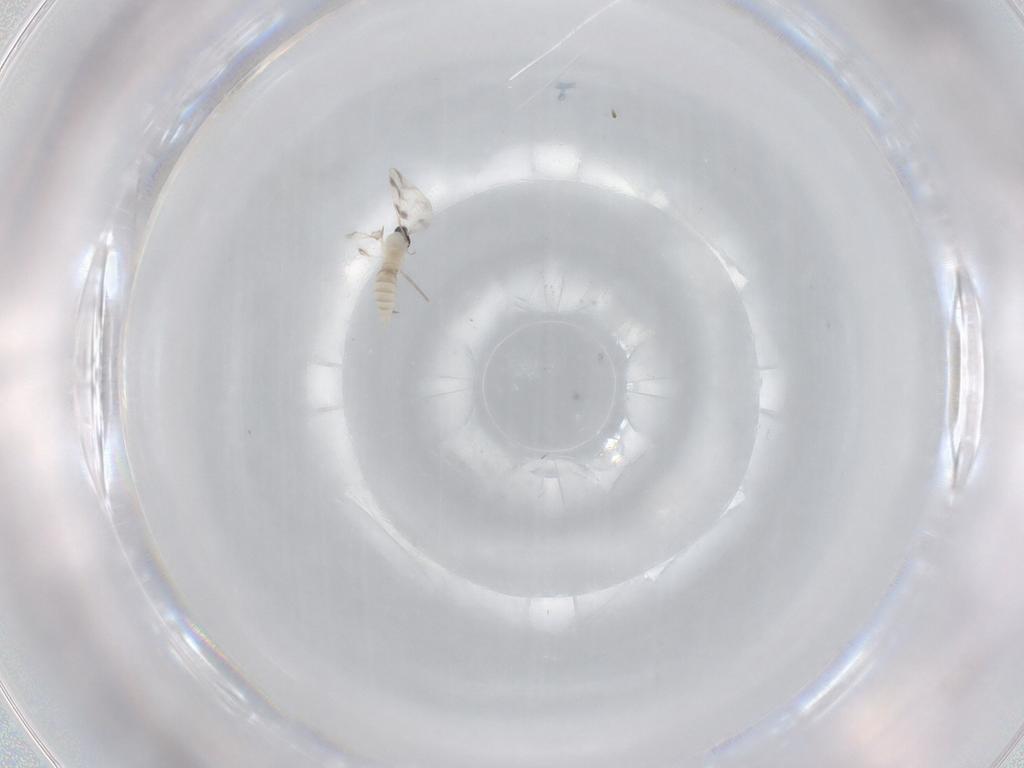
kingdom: Animalia
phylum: Arthropoda
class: Insecta
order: Diptera
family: Cecidomyiidae
